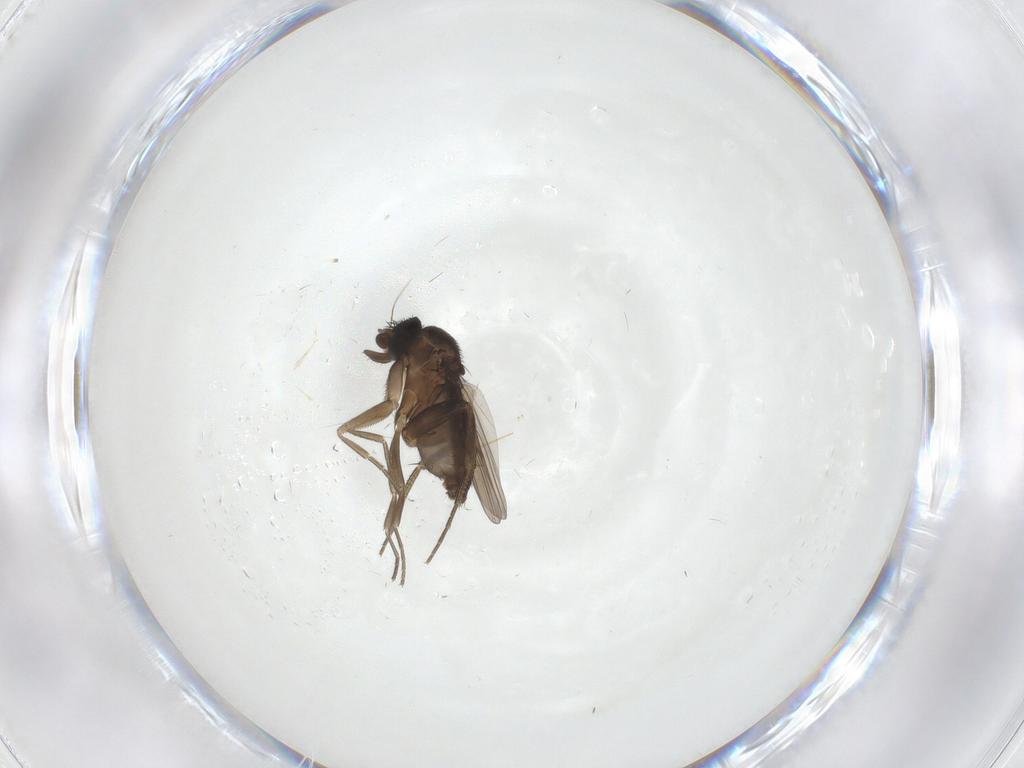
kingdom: Animalia
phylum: Arthropoda
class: Insecta
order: Diptera
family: Phoridae
